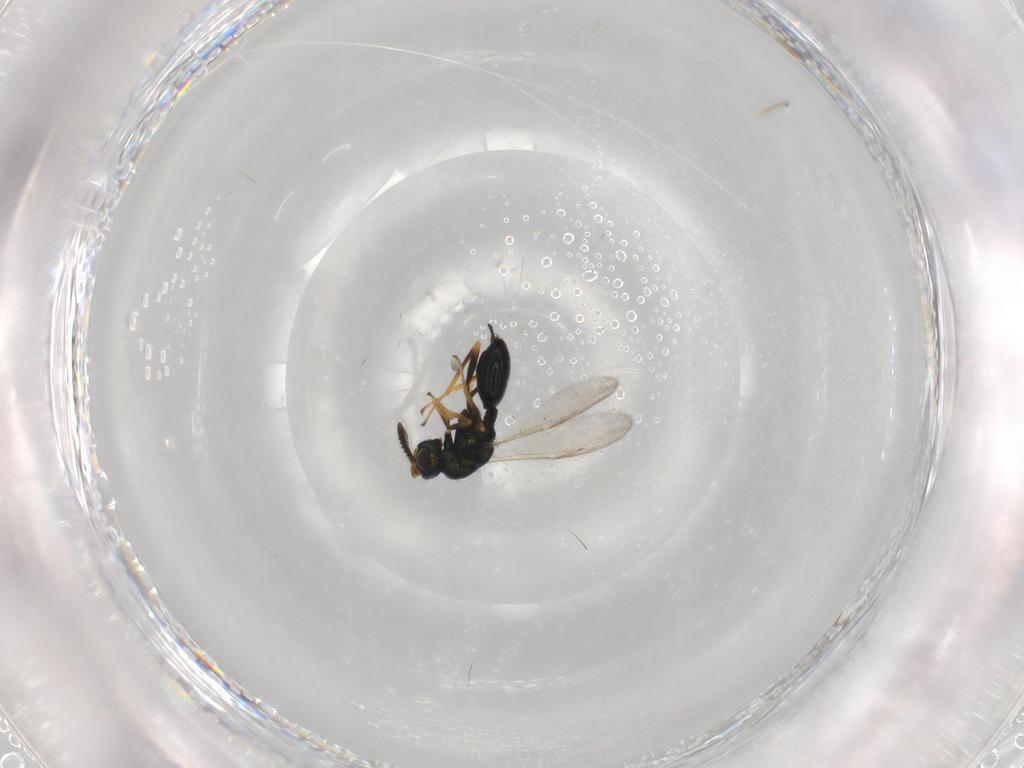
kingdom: Animalia
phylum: Arthropoda
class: Insecta
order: Hymenoptera
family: Chalcidoidea_incertae_sedis
